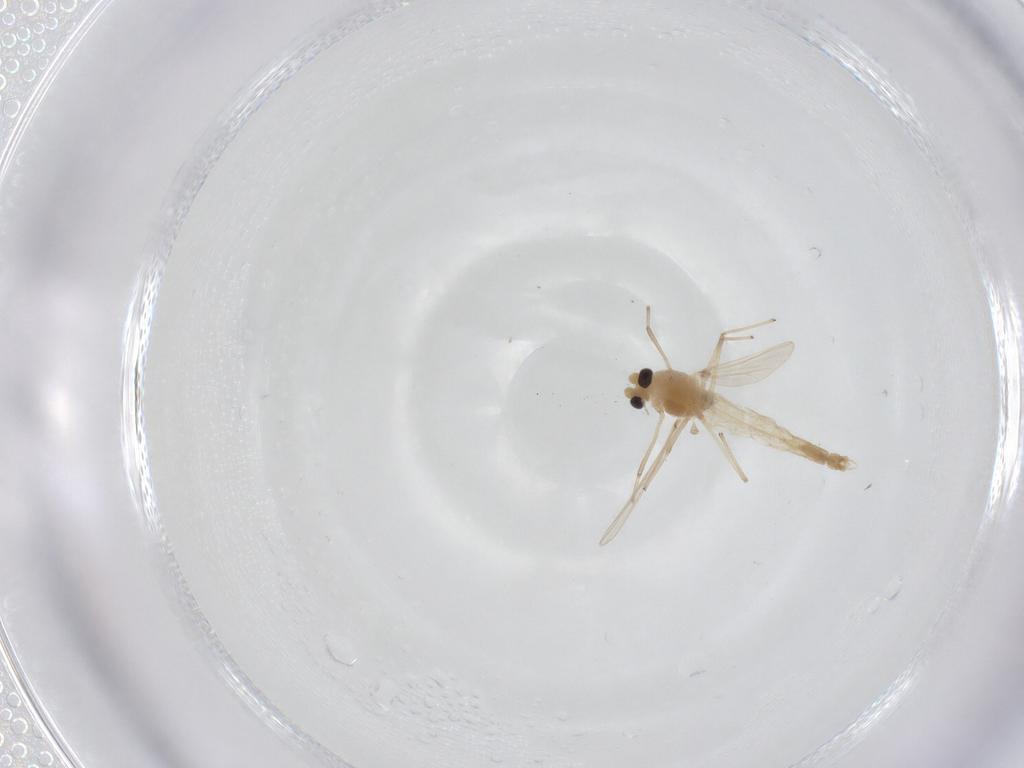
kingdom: Animalia
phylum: Arthropoda
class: Insecta
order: Diptera
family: Chironomidae
